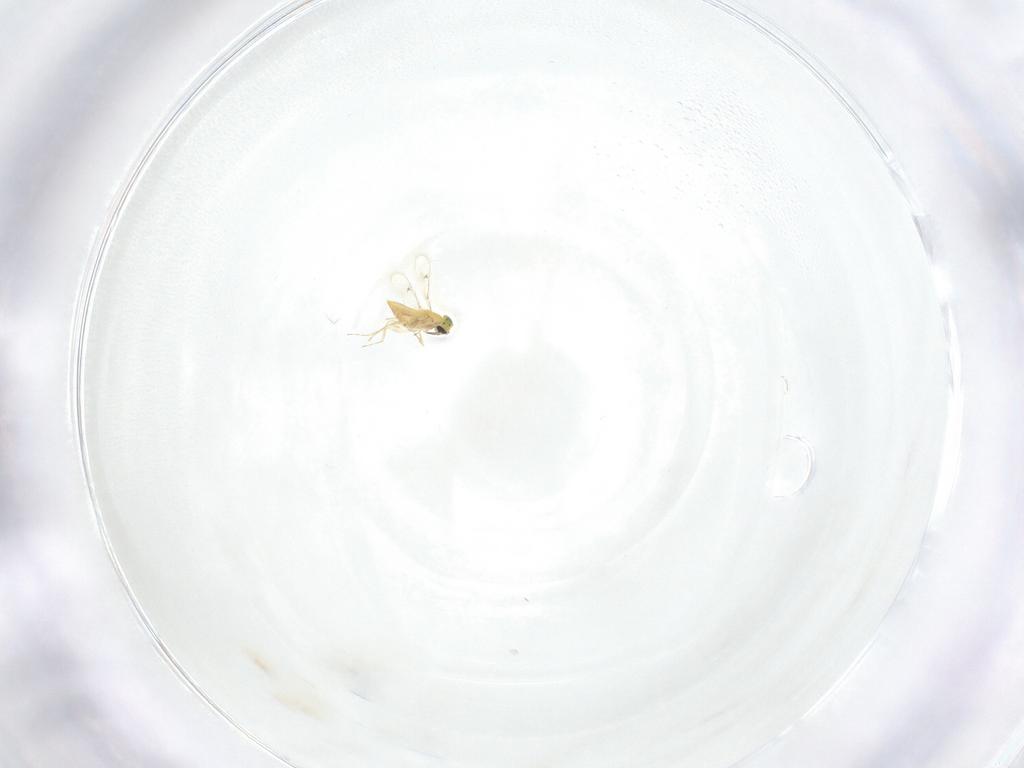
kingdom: Animalia
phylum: Arthropoda
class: Insecta
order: Hymenoptera
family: Trichogrammatidae
